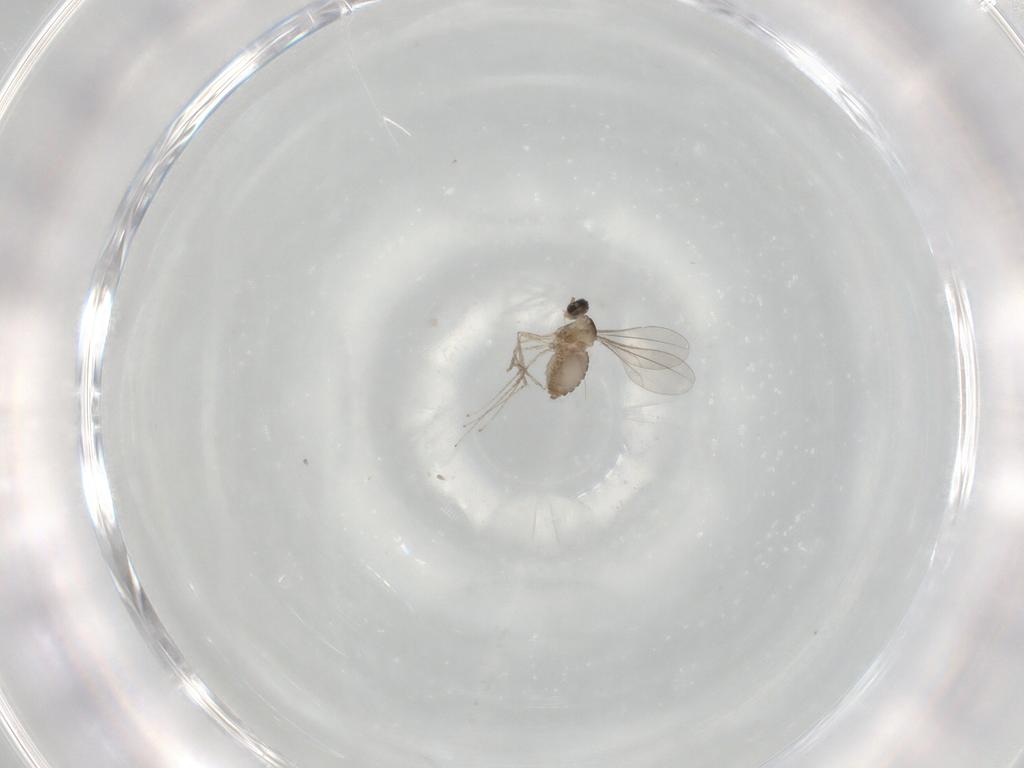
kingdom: Animalia
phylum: Arthropoda
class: Insecta
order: Diptera
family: Cecidomyiidae
